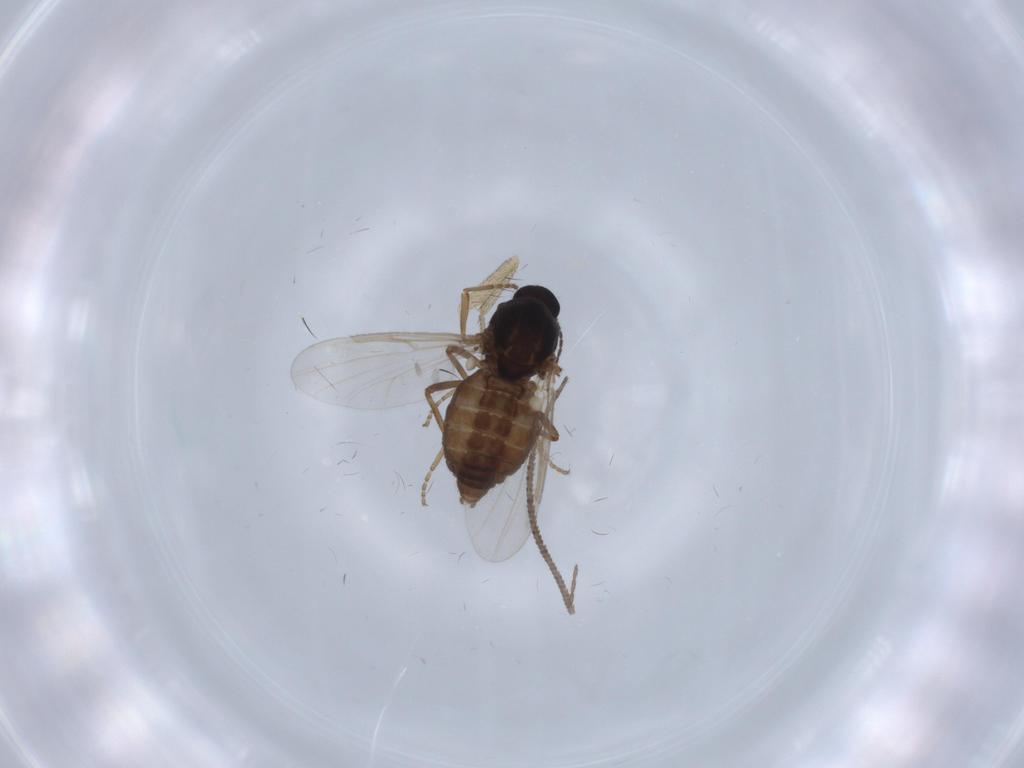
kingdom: Animalia
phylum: Arthropoda
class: Insecta
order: Diptera
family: Ceratopogonidae
